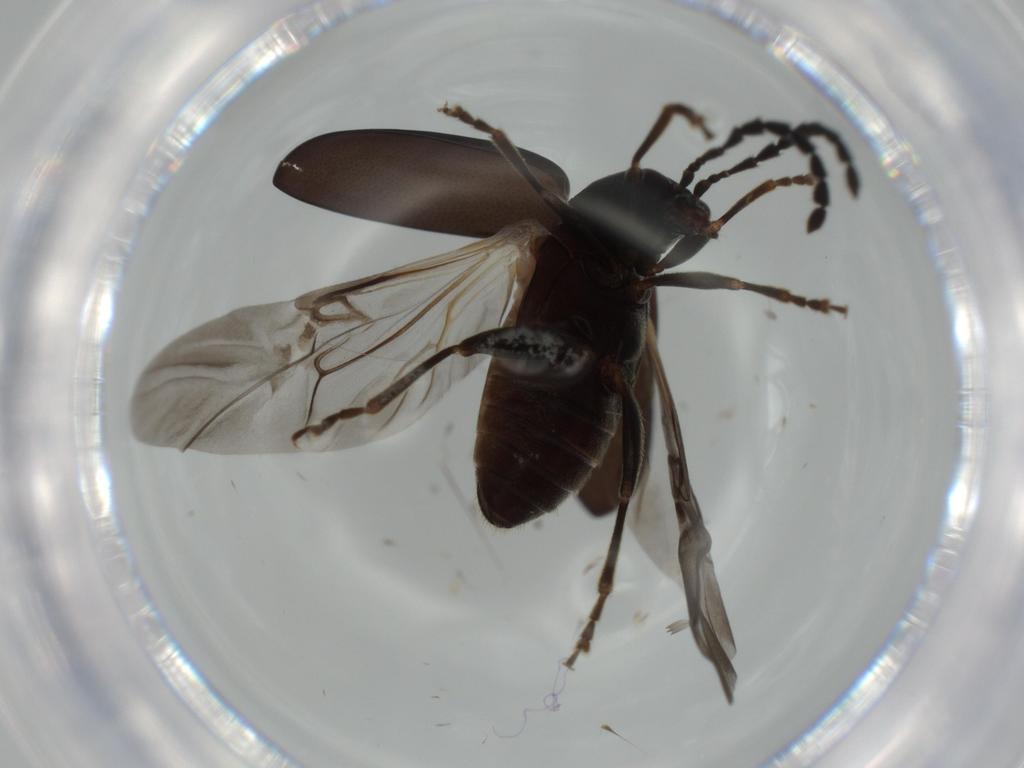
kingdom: Animalia
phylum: Arthropoda
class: Insecta
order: Coleoptera
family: Chrysomelidae
